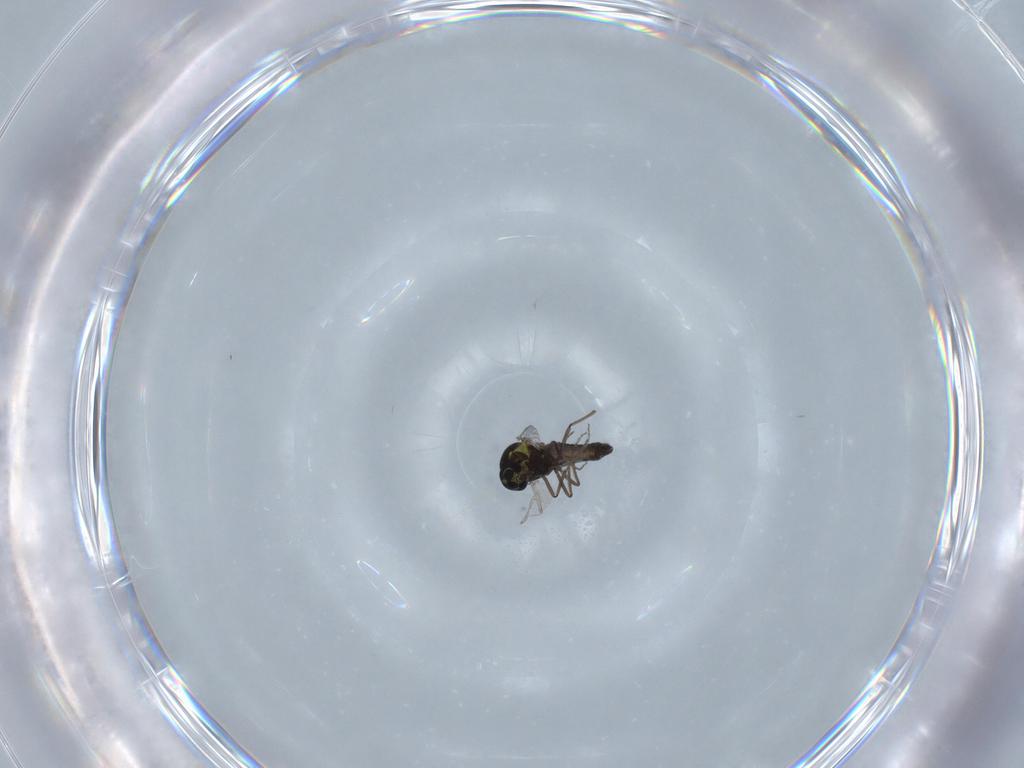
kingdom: Animalia
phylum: Arthropoda
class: Insecta
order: Diptera
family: Ceratopogonidae
